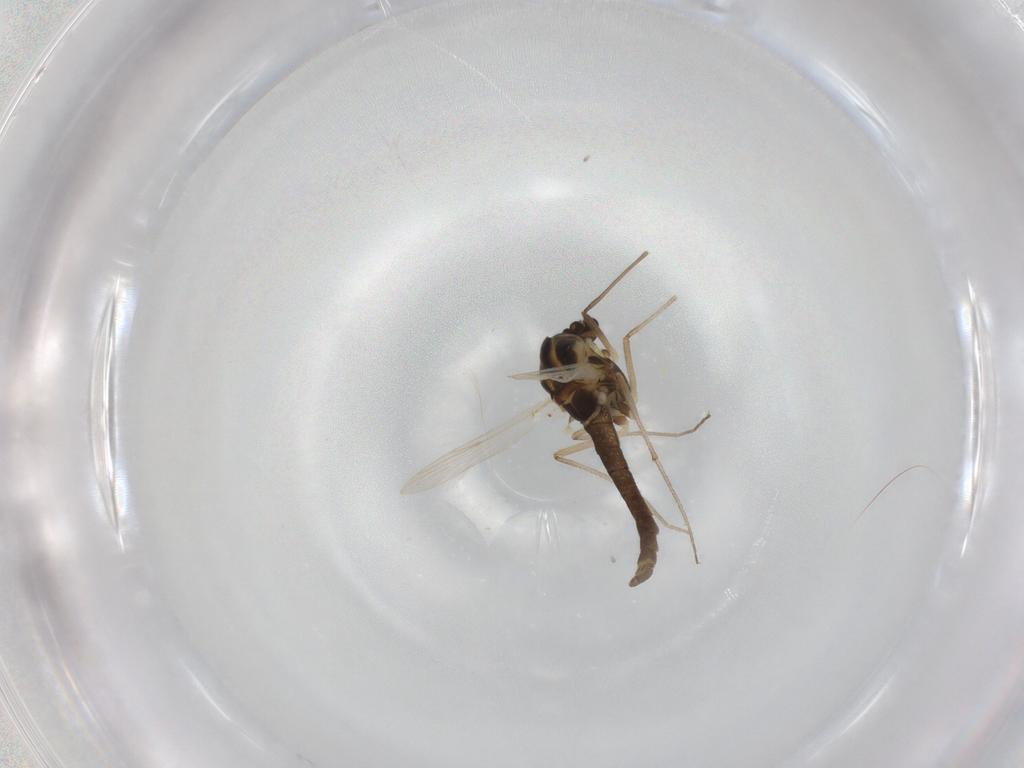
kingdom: Animalia
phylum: Arthropoda
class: Insecta
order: Diptera
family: Chironomidae
